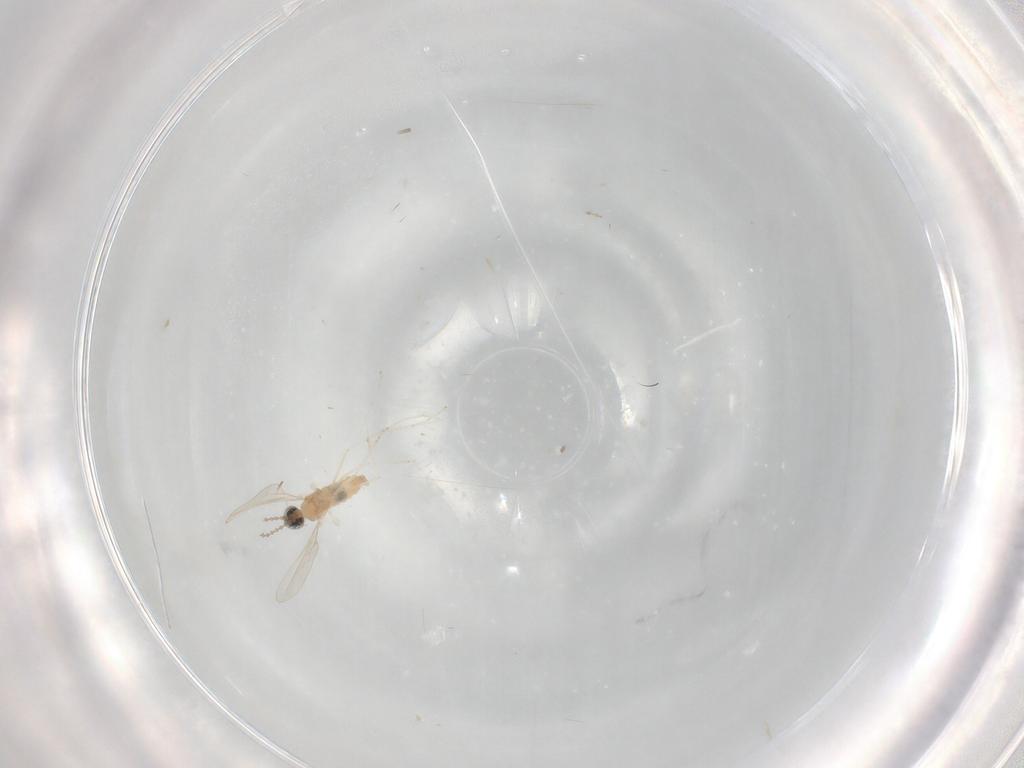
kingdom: Animalia
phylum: Arthropoda
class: Insecta
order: Diptera
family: Cecidomyiidae
